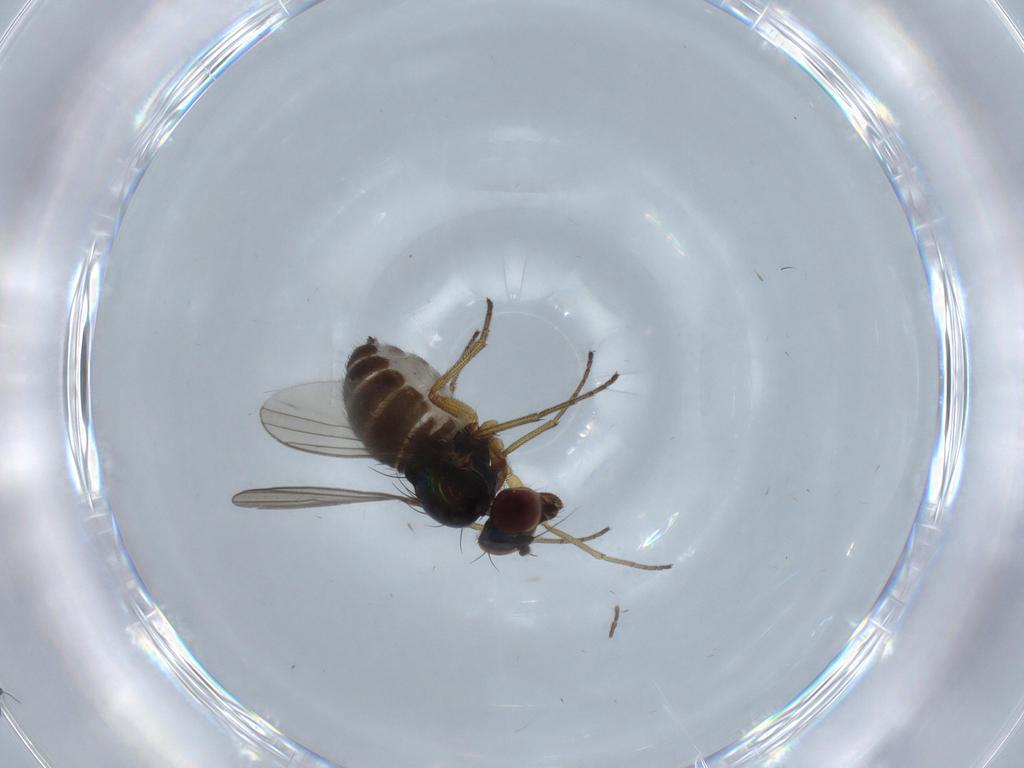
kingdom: Animalia
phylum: Arthropoda
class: Insecta
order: Diptera
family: Dolichopodidae
